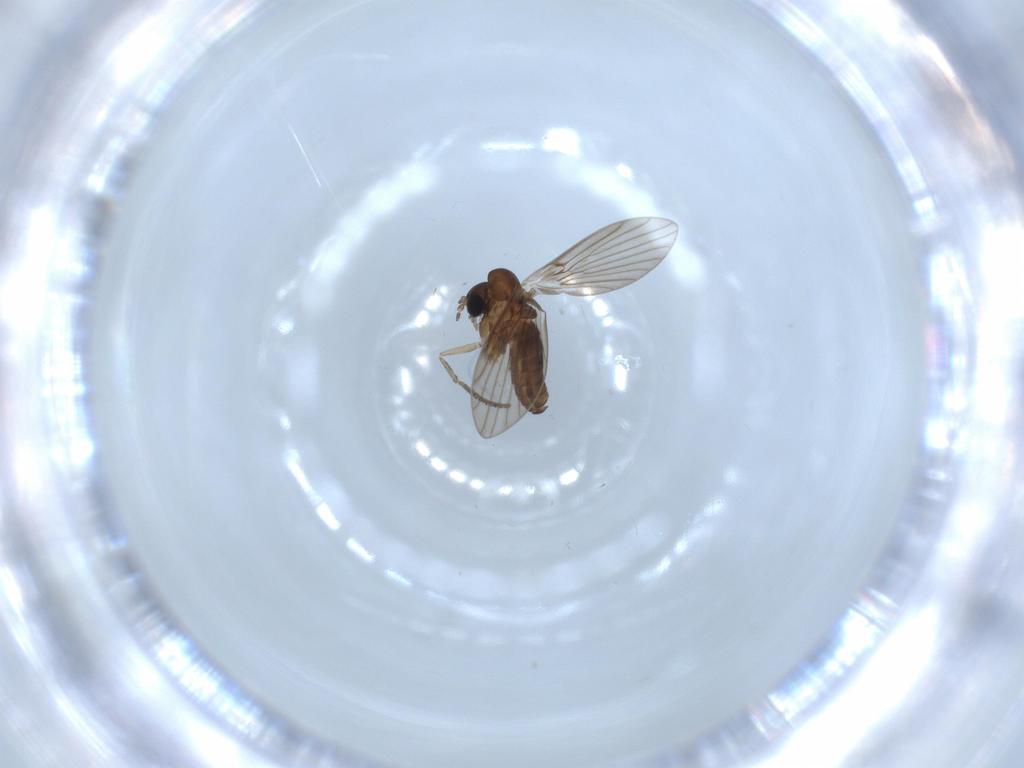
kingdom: Animalia
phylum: Arthropoda
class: Insecta
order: Diptera
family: Psychodidae
